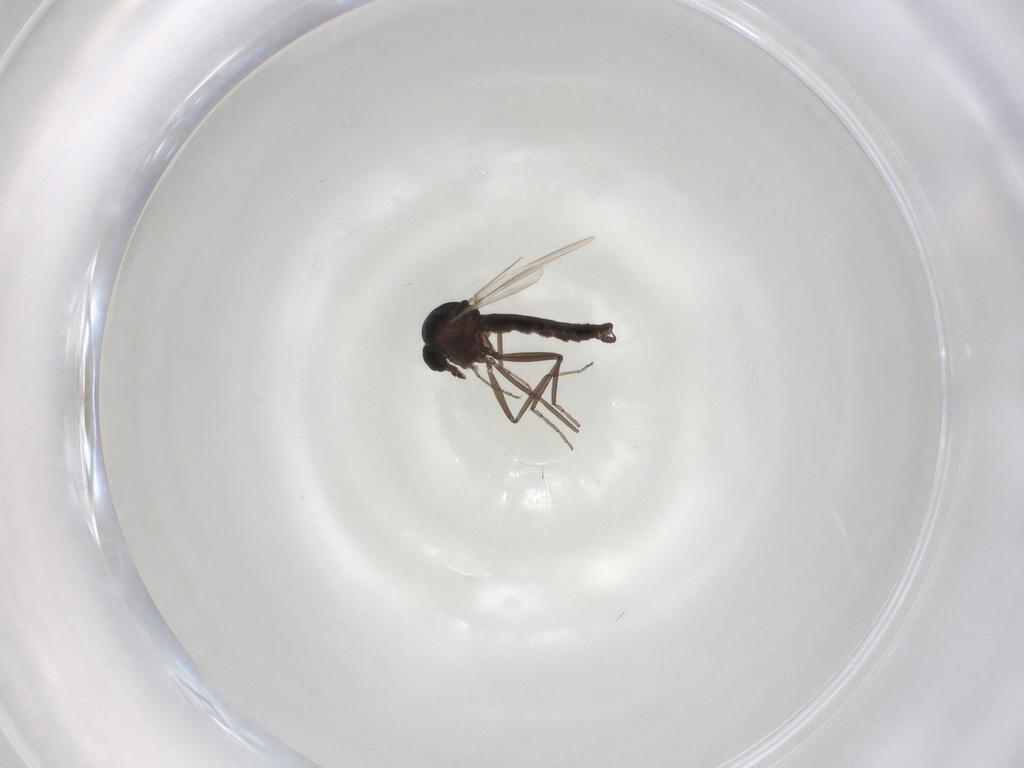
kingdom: Animalia
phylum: Arthropoda
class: Insecta
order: Diptera
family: Ceratopogonidae
